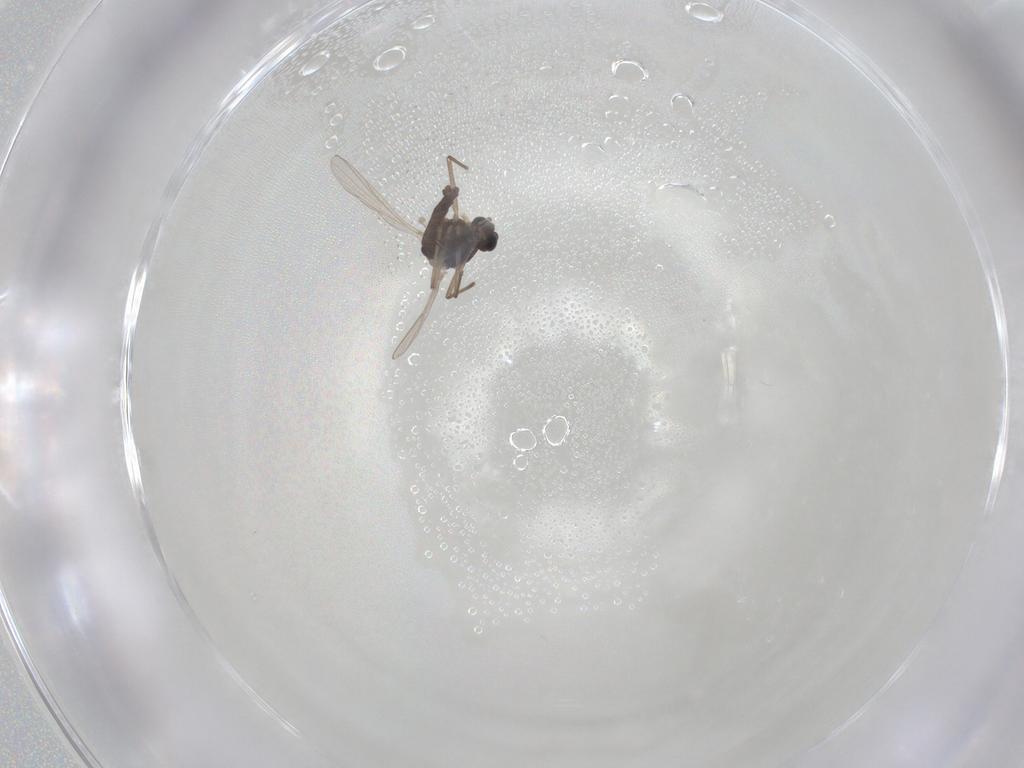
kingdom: Animalia
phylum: Arthropoda
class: Insecta
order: Diptera
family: Chironomidae
